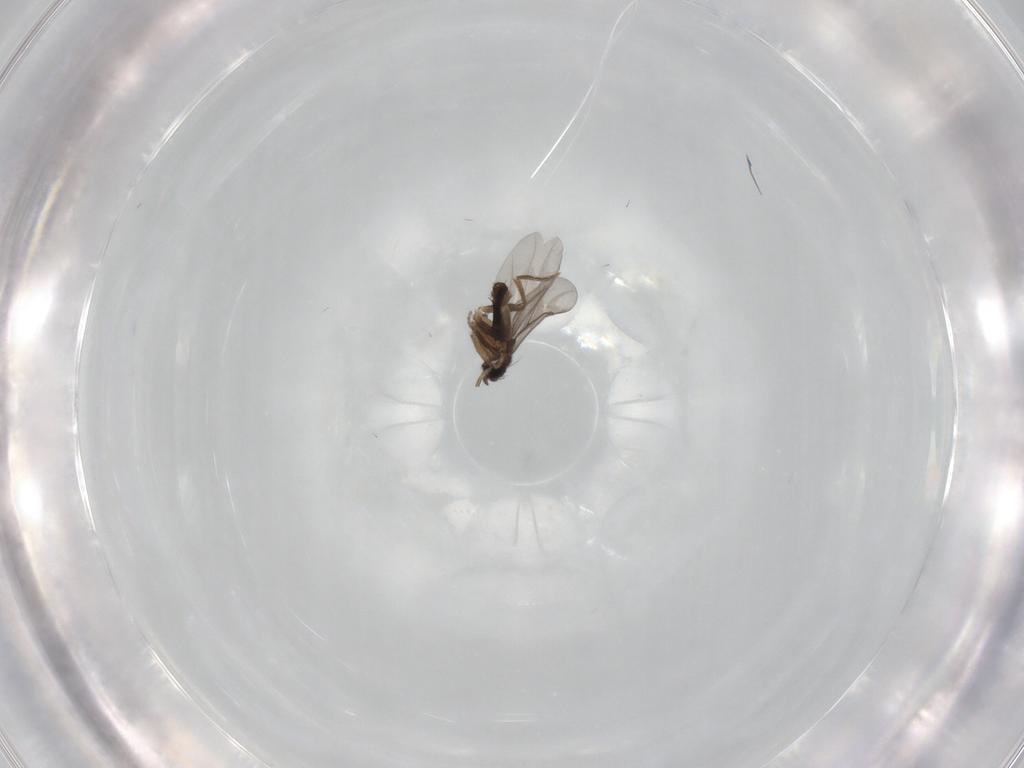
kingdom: Animalia
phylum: Arthropoda
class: Insecta
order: Diptera
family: Dolichopodidae
